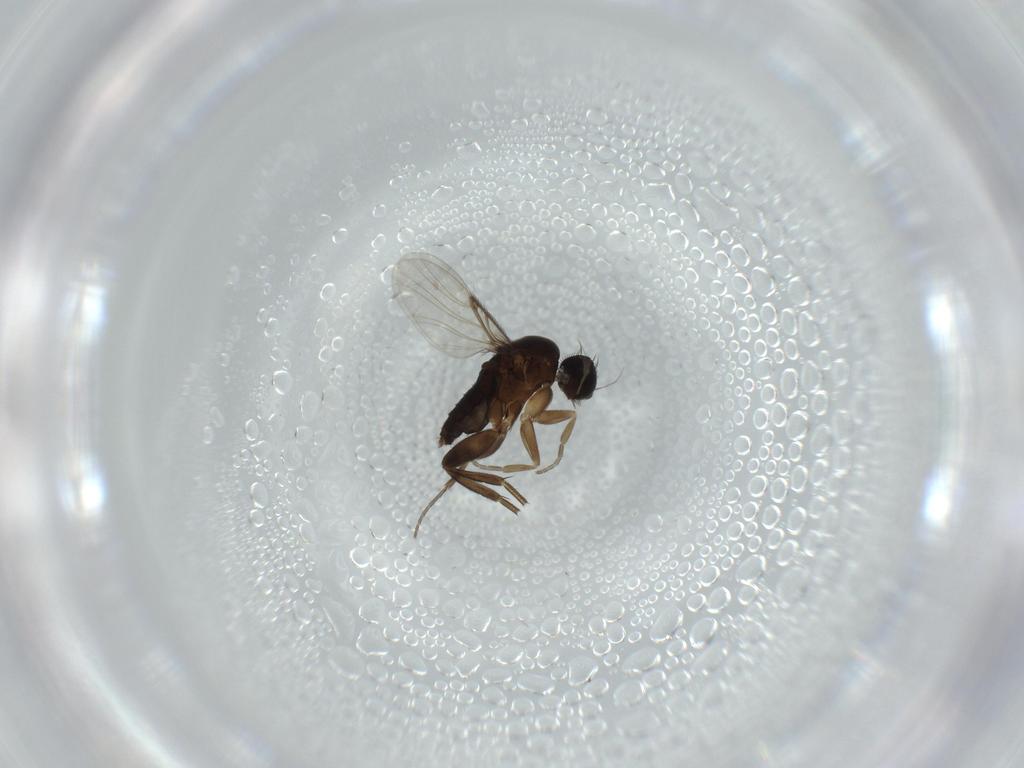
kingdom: Animalia
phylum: Arthropoda
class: Insecta
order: Diptera
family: Phoridae
